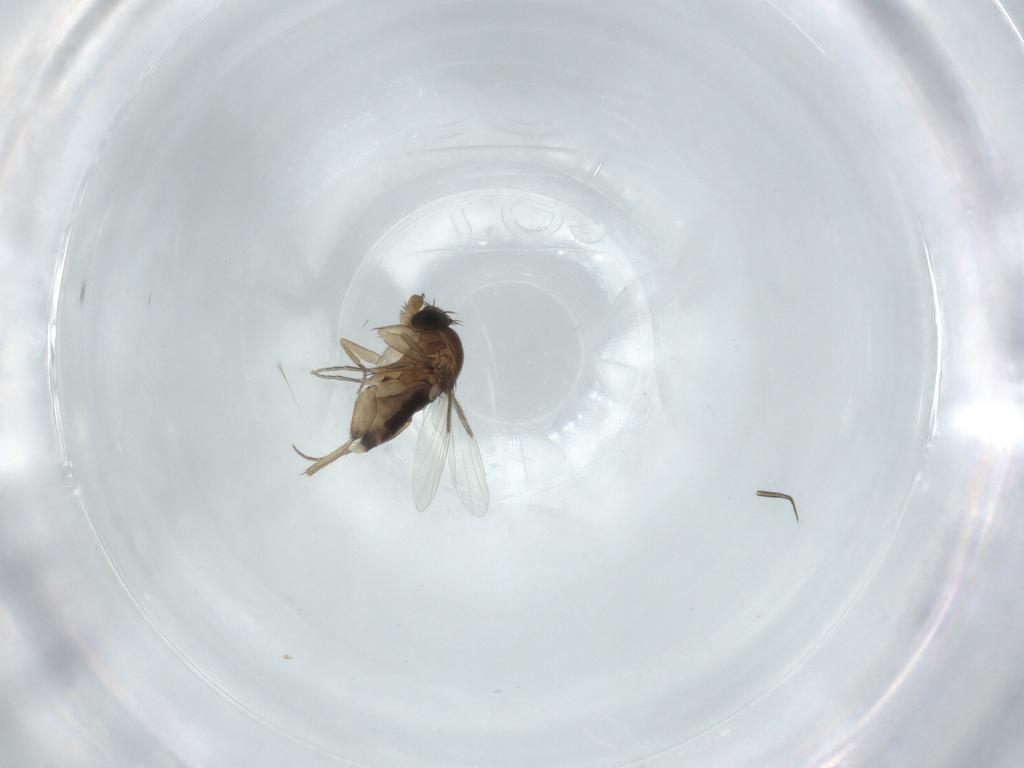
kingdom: Animalia
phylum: Arthropoda
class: Insecta
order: Diptera
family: Phoridae
